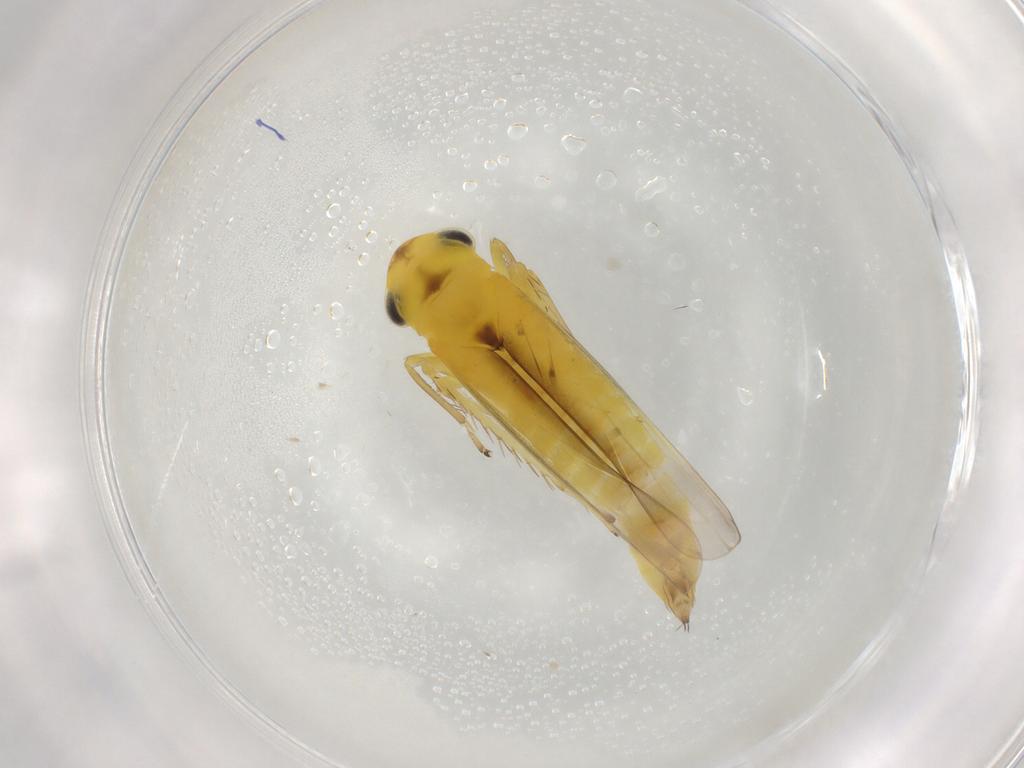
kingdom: Animalia
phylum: Arthropoda
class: Insecta
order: Hemiptera
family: Cicadellidae
